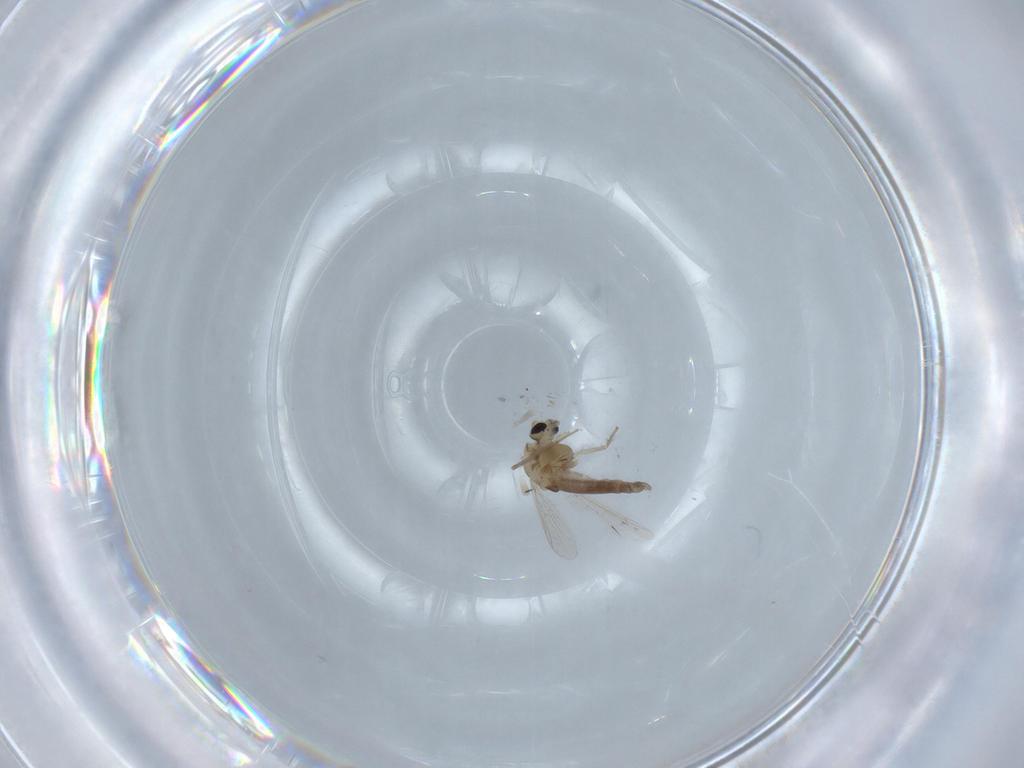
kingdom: Animalia
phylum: Arthropoda
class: Insecta
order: Diptera
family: Chironomidae
